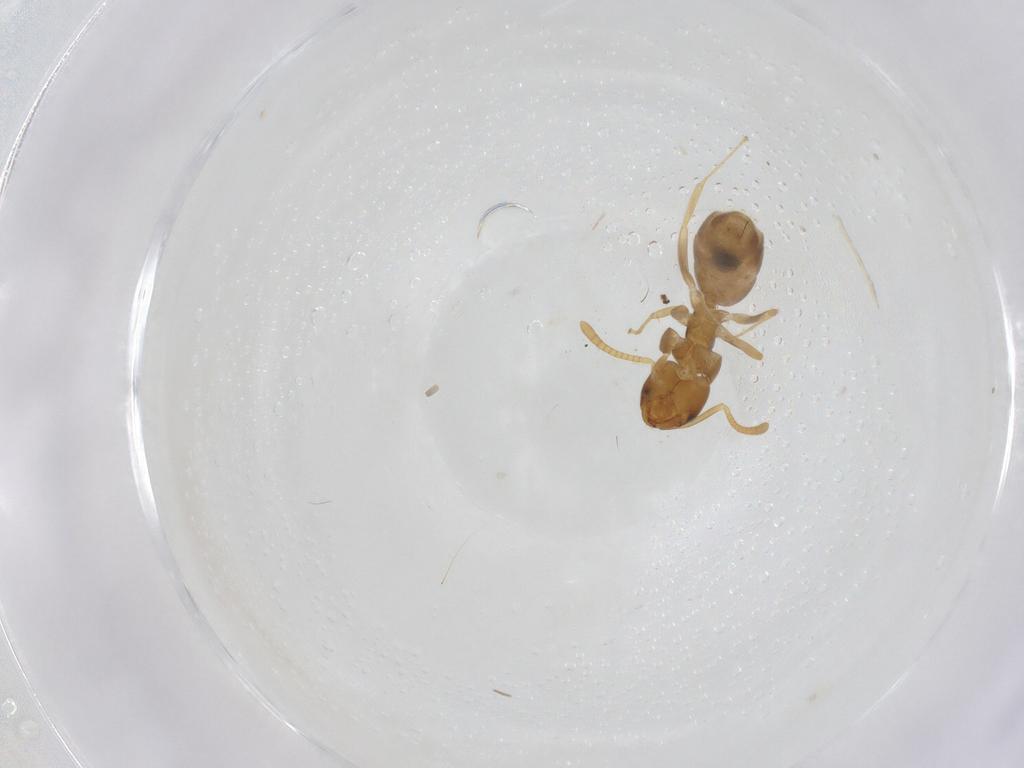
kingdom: Animalia
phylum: Arthropoda
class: Insecta
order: Hymenoptera
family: Formicidae
